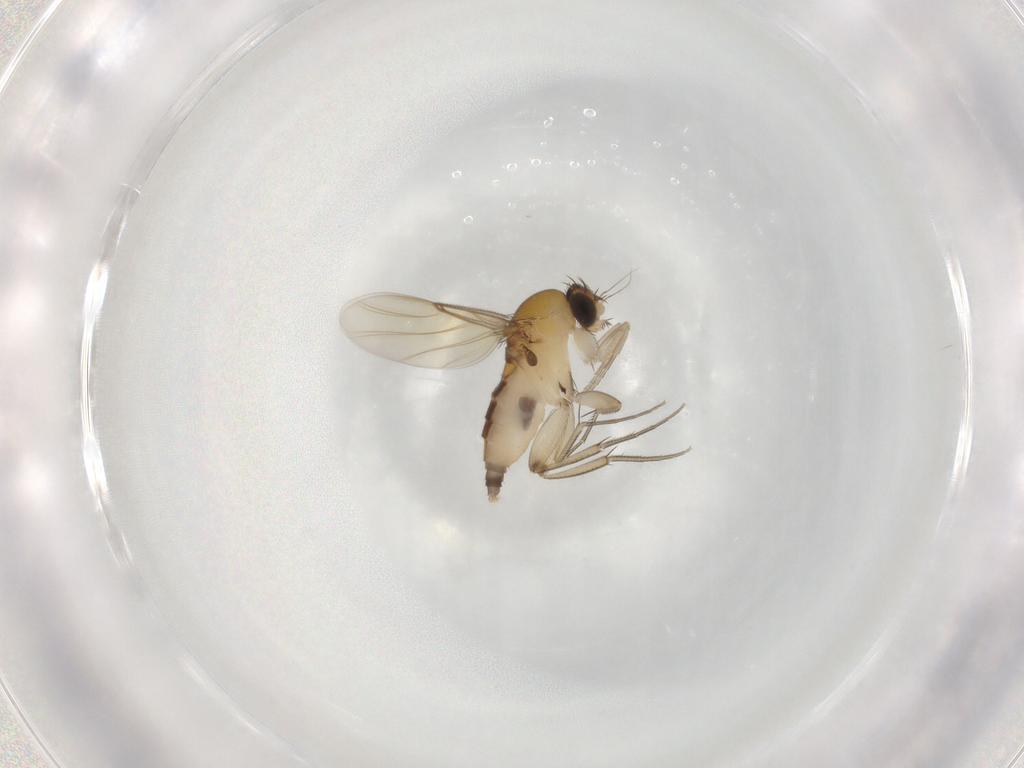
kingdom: Animalia
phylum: Arthropoda
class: Insecta
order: Diptera
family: Phoridae
